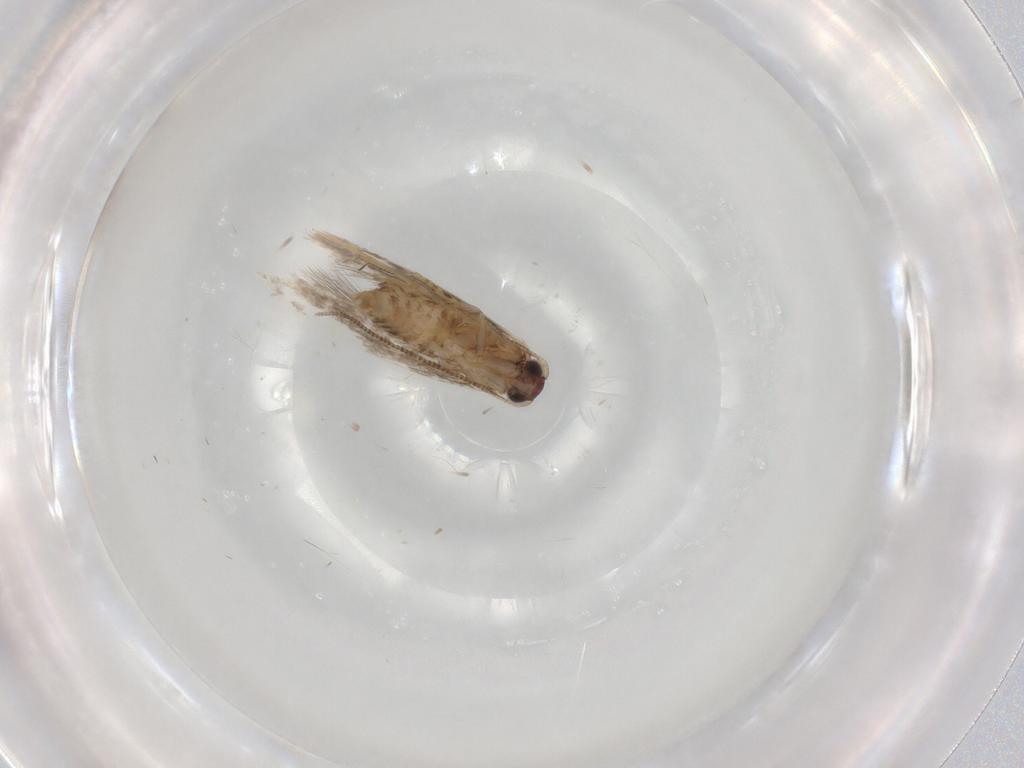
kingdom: Animalia
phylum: Arthropoda
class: Insecta
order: Lepidoptera
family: Tineidae
